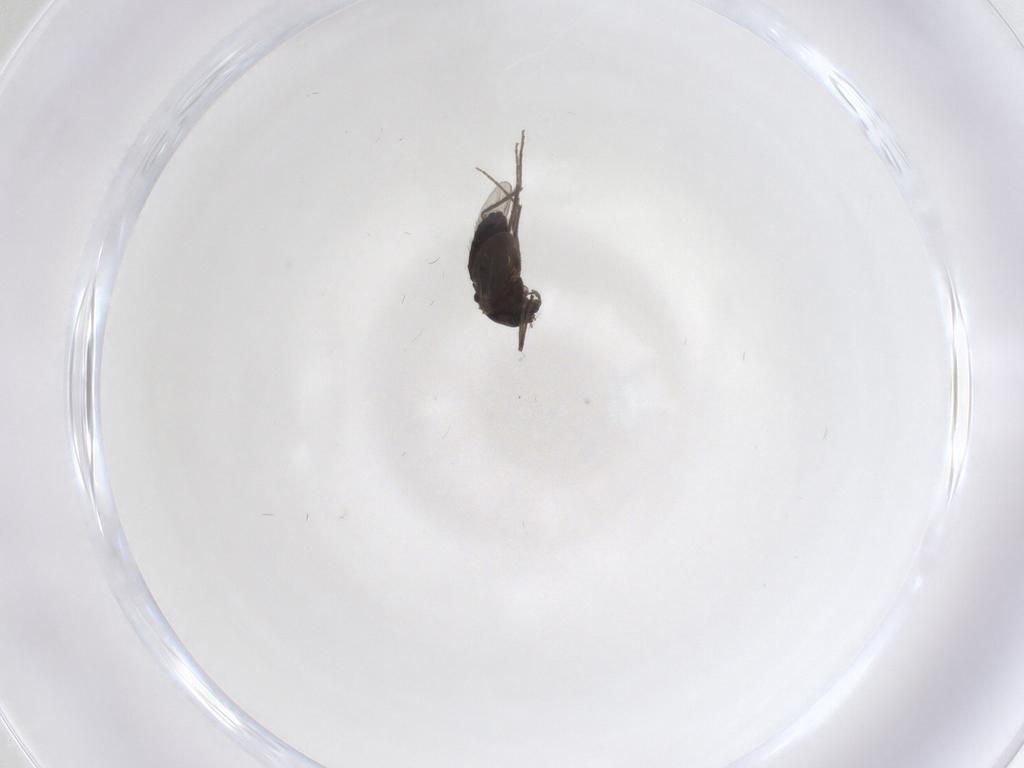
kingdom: Animalia
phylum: Arthropoda
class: Insecta
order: Diptera
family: Chironomidae
